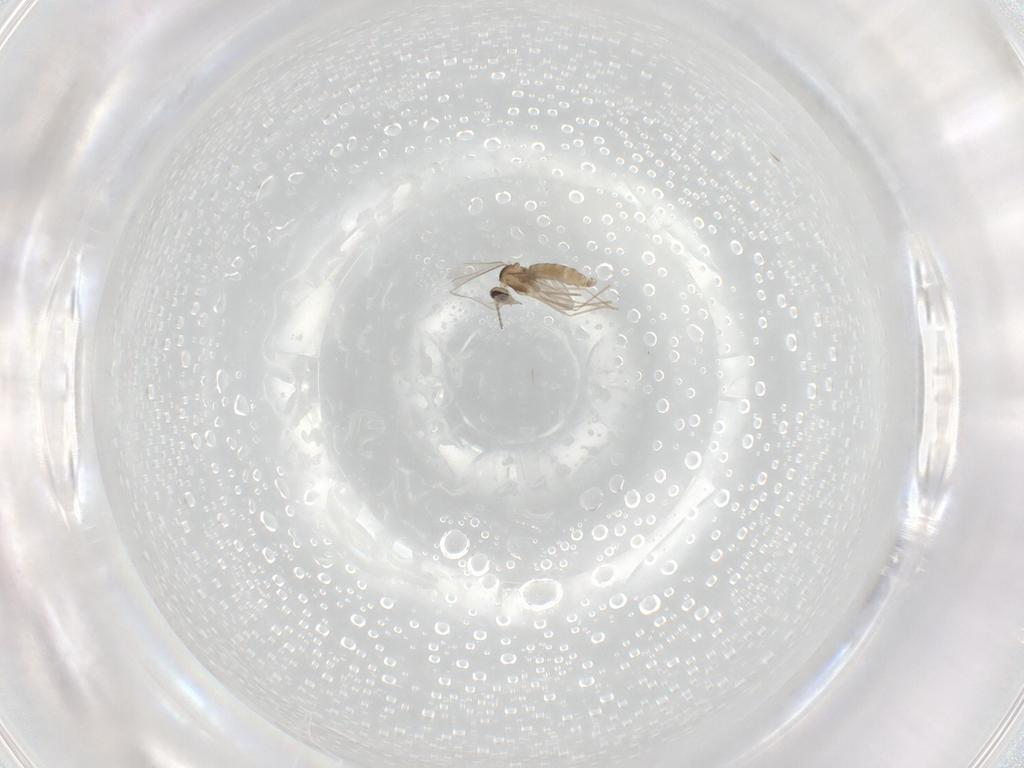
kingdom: Animalia
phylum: Arthropoda
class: Insecta
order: Diptera
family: Cecidomyiidae
